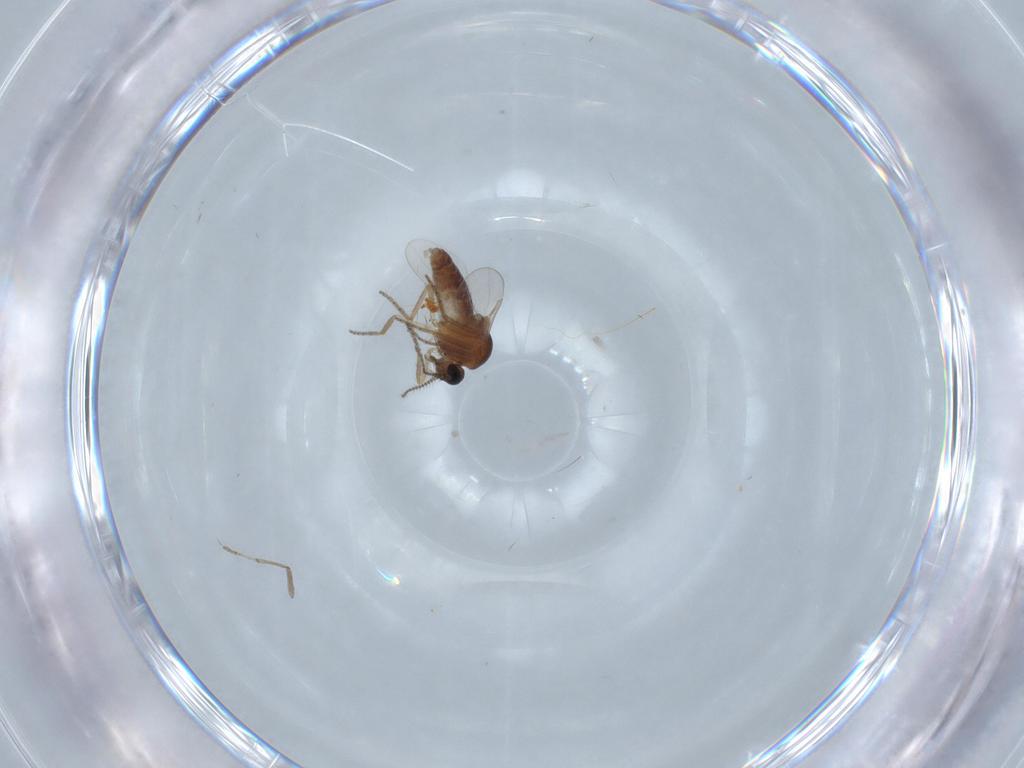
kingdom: Animalia
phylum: Arthropoda
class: Insecta
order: Diptera
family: Ceratopogonidae
